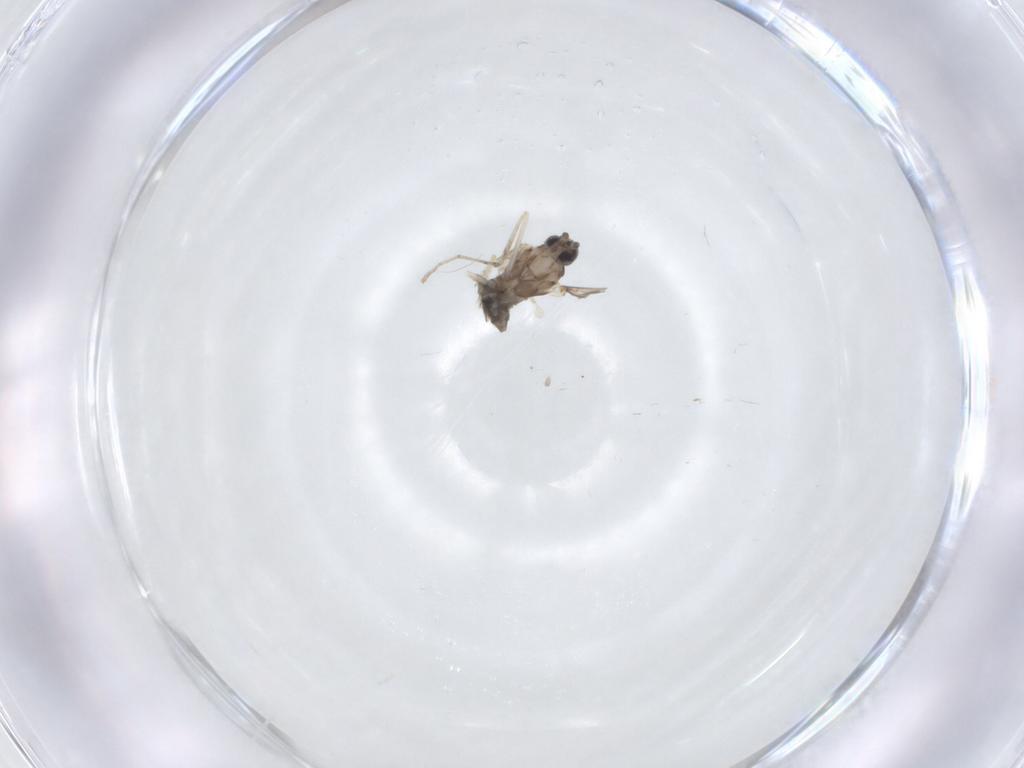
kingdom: Animalia
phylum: Arthropoda
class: Insecta
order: Diptera
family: Cecidomyiidae
